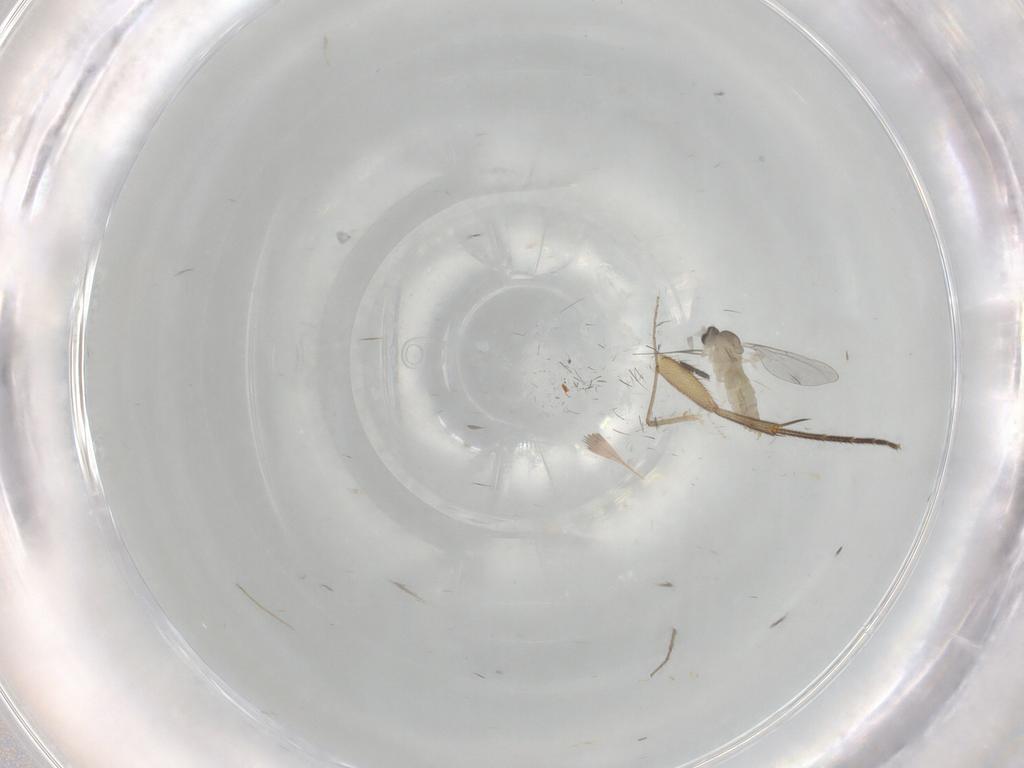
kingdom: Animalia
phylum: Arthropoda
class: Insecta
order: Diptera
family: Cecidomyiidae
